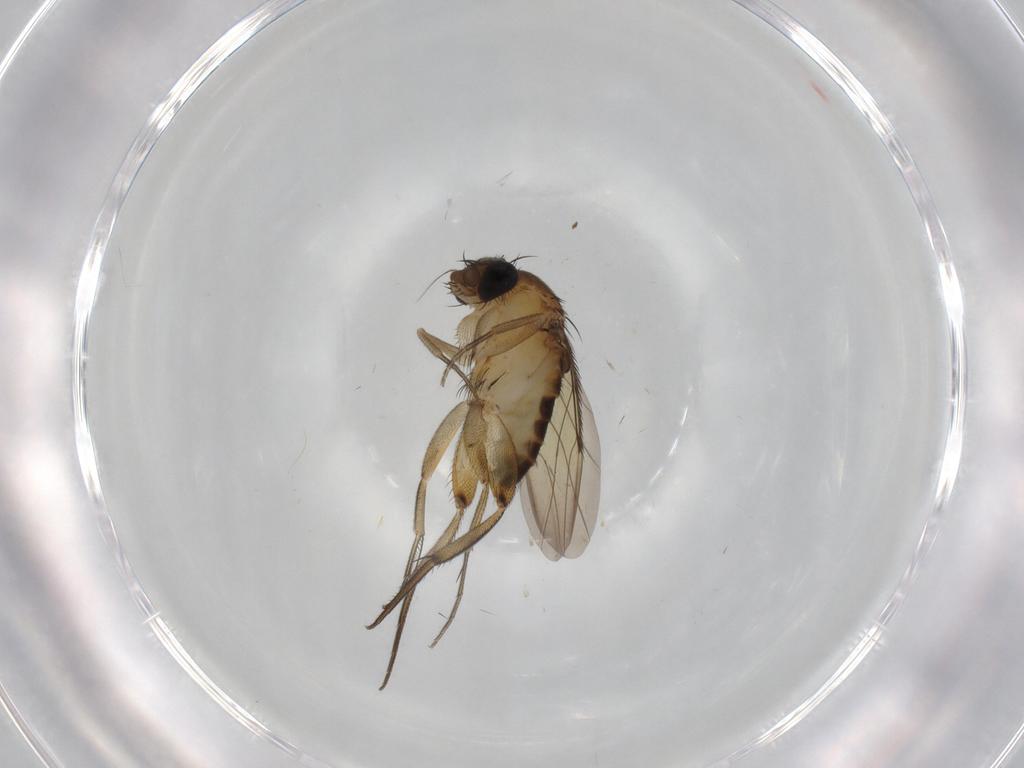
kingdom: Animalia
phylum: Arthropoda
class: Insecta
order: Diptera
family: Phoridae
